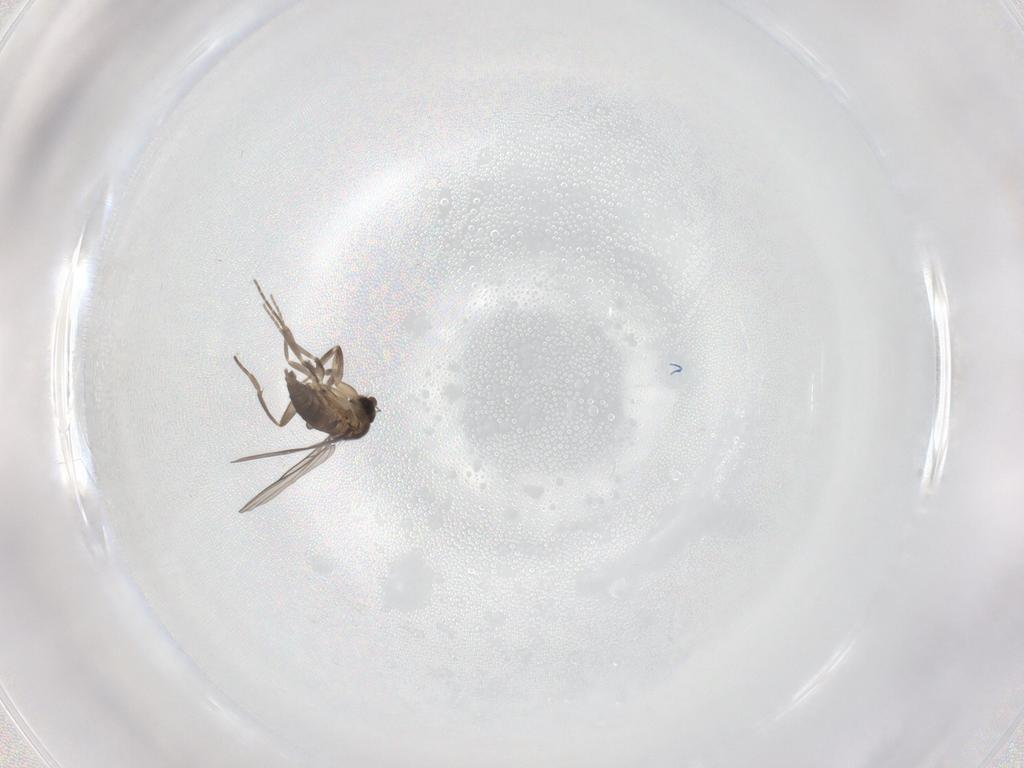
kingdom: Animalia
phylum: Arthropoda
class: Insecta
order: Diptera
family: Phoridae
